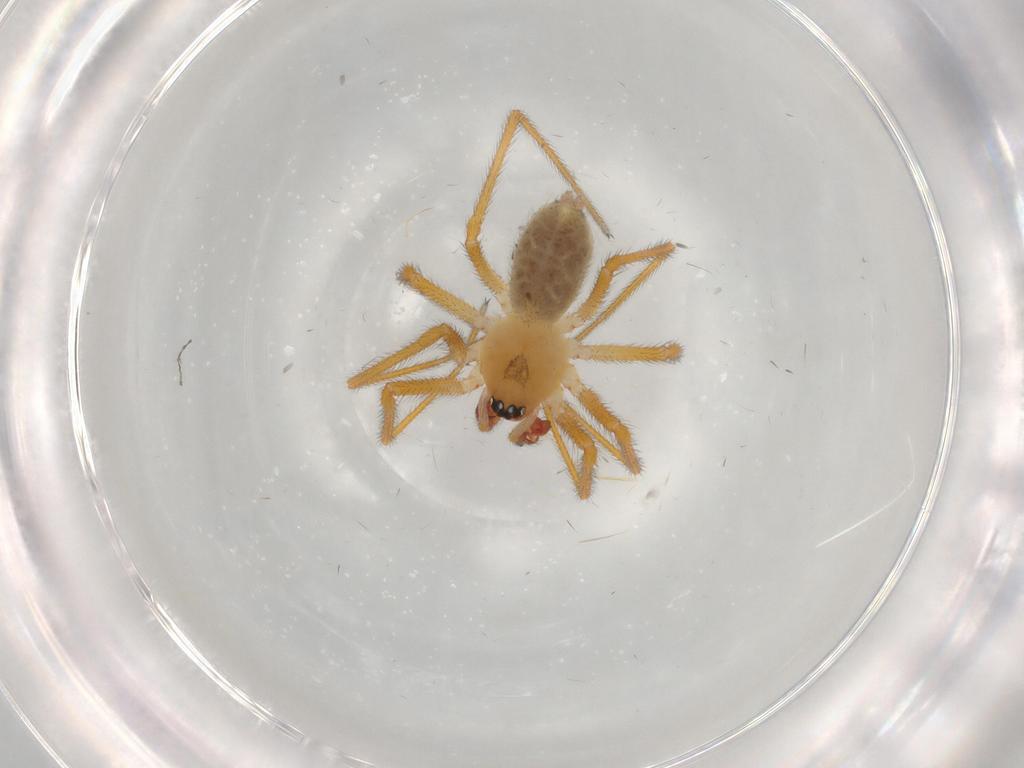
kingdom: Animalia
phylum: Arthropoda
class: Arachnida
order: Araneae
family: Linyphiidae
